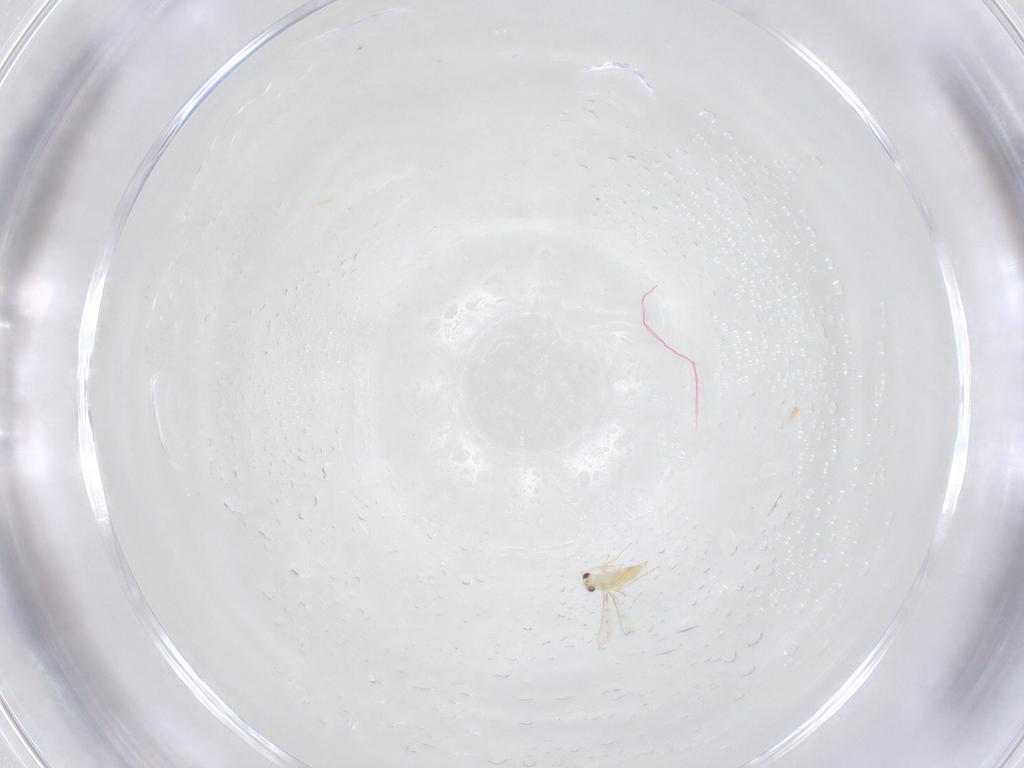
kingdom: Animalia
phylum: Arthropoda
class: Insecta
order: Hymenoptera
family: Mymaridae
